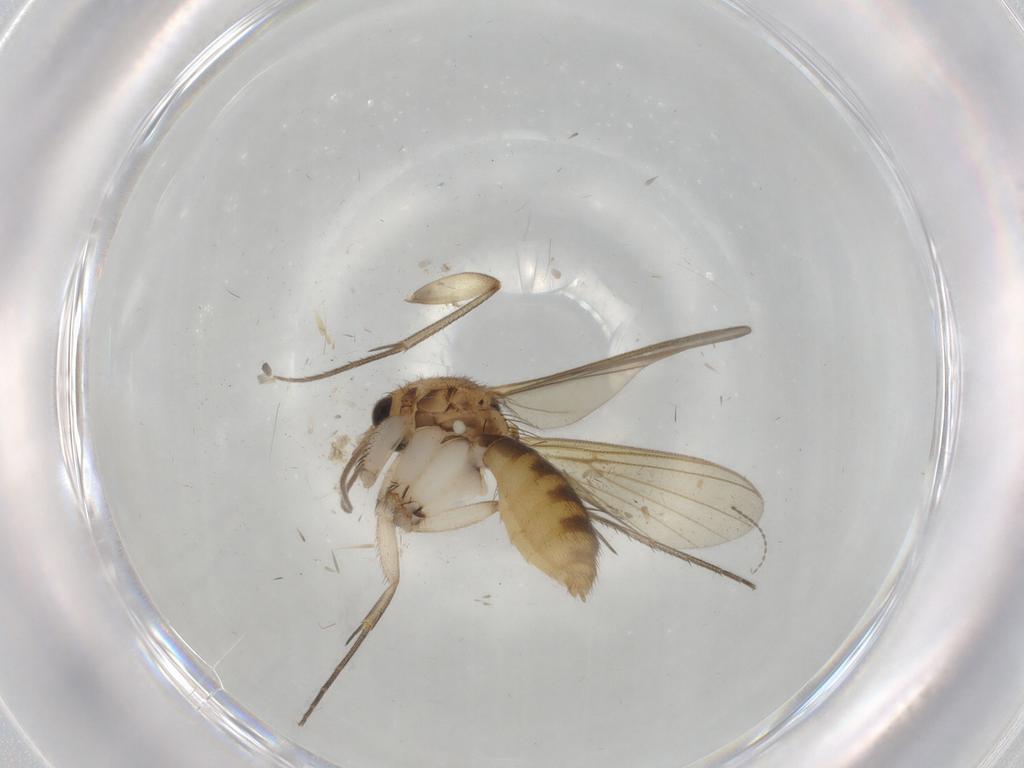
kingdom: Animalia
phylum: Arthropoda
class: Insecta
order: Diptera
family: Mycetophilidae
